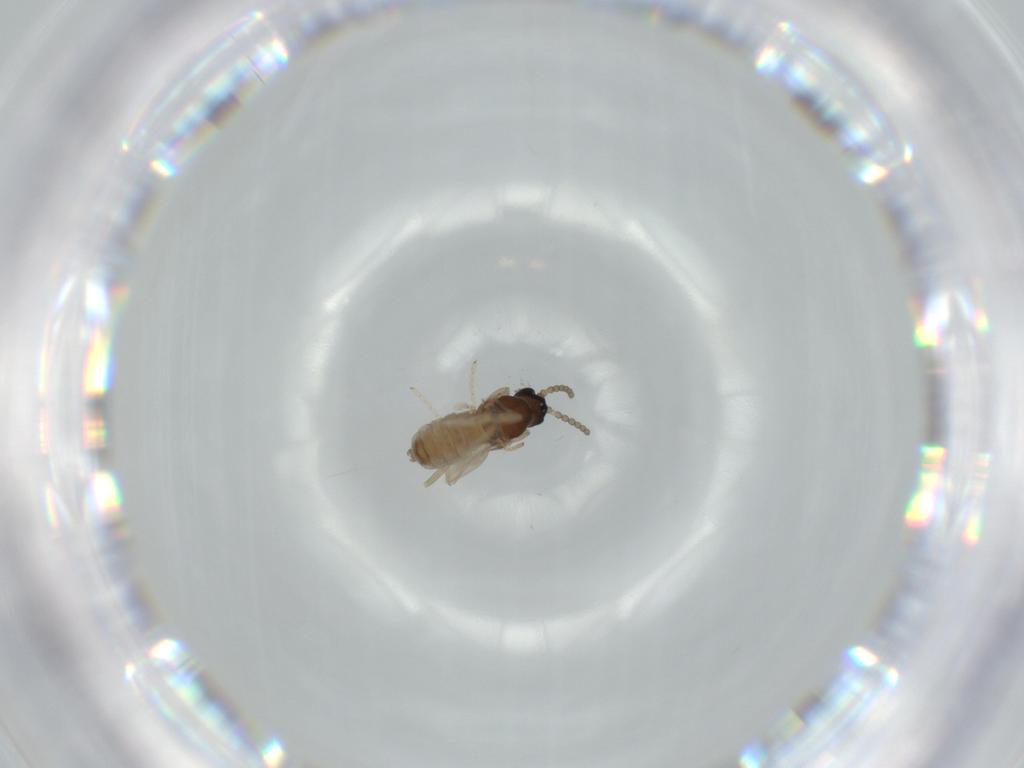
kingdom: Animalia
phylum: Arthropoda
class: Insecta
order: Diptera
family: Cecidomyiidae
